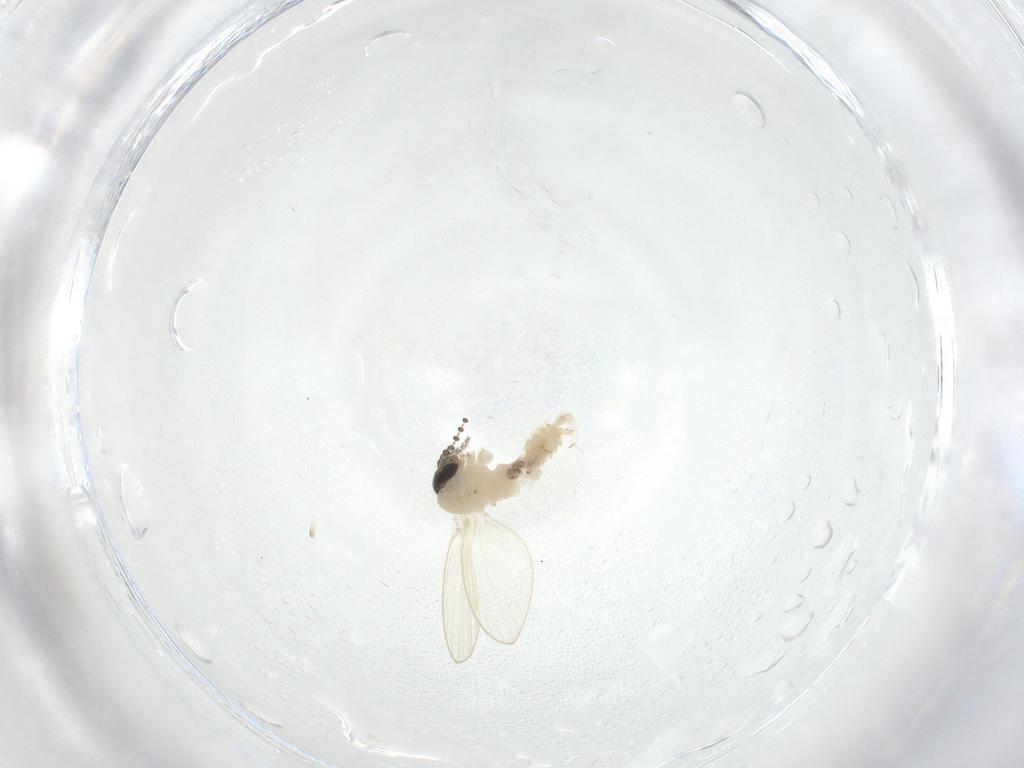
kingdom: Animalia
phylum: Arthropoda
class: Insecta
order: Diptera
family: Psychodidae
